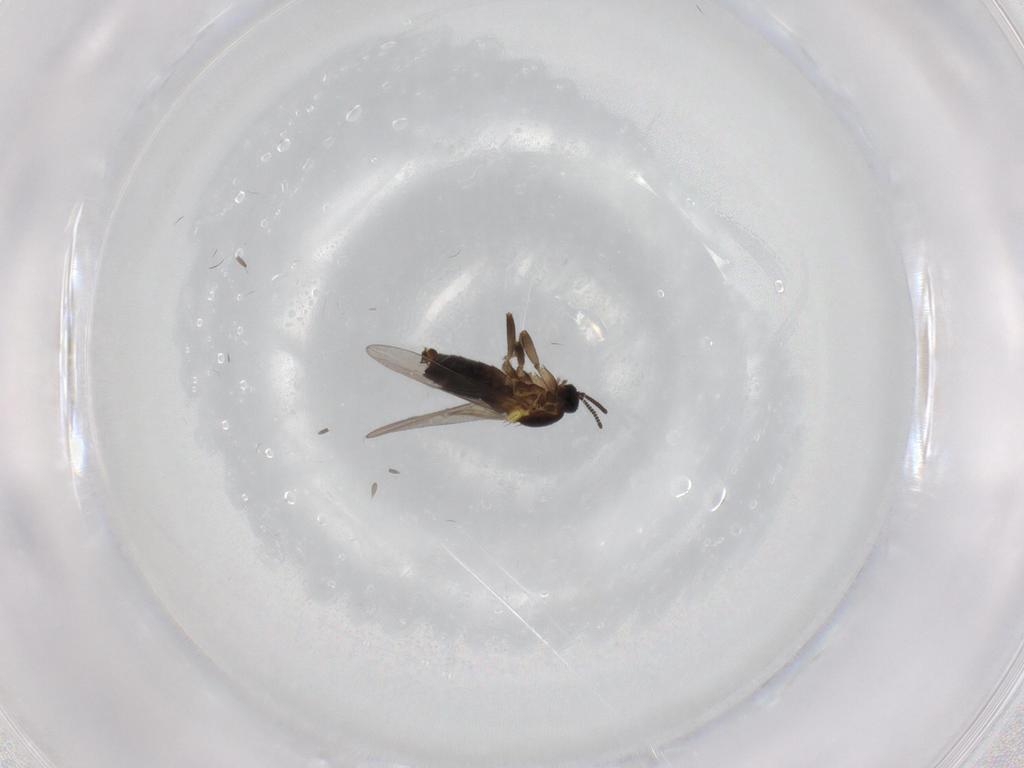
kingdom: Animalia
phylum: Arthropoda
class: Insecta
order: Diptera
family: Scatopsidae
